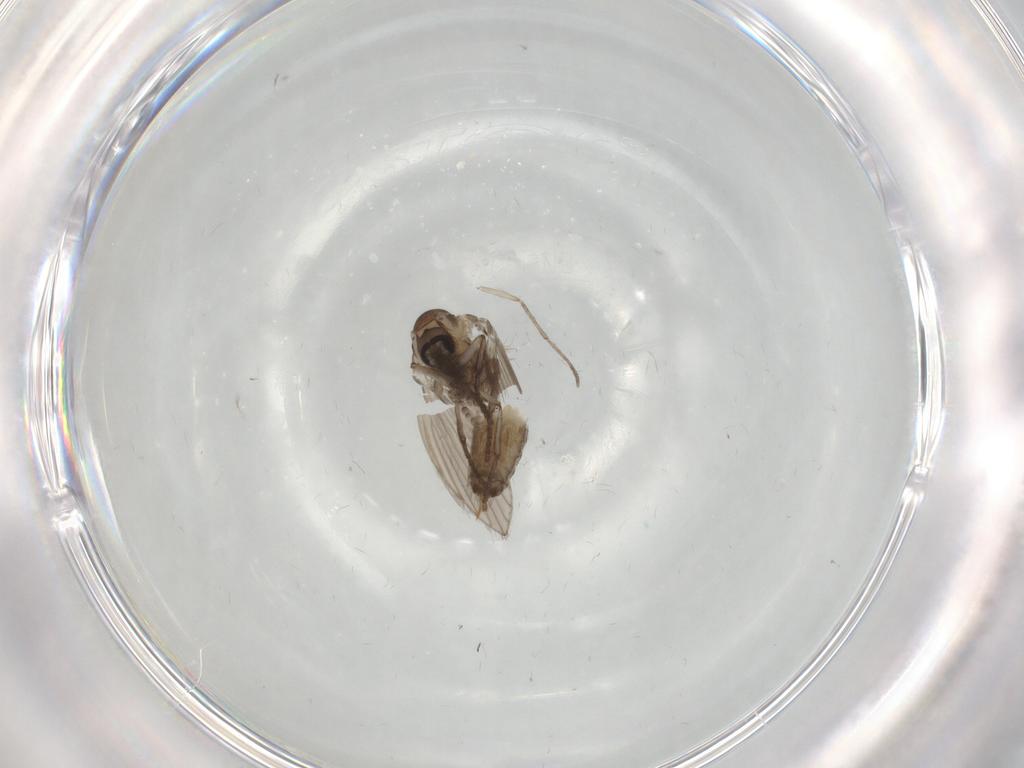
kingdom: Animalia
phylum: Arthropoda
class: Insecta
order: Diptera
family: Psychodidae
